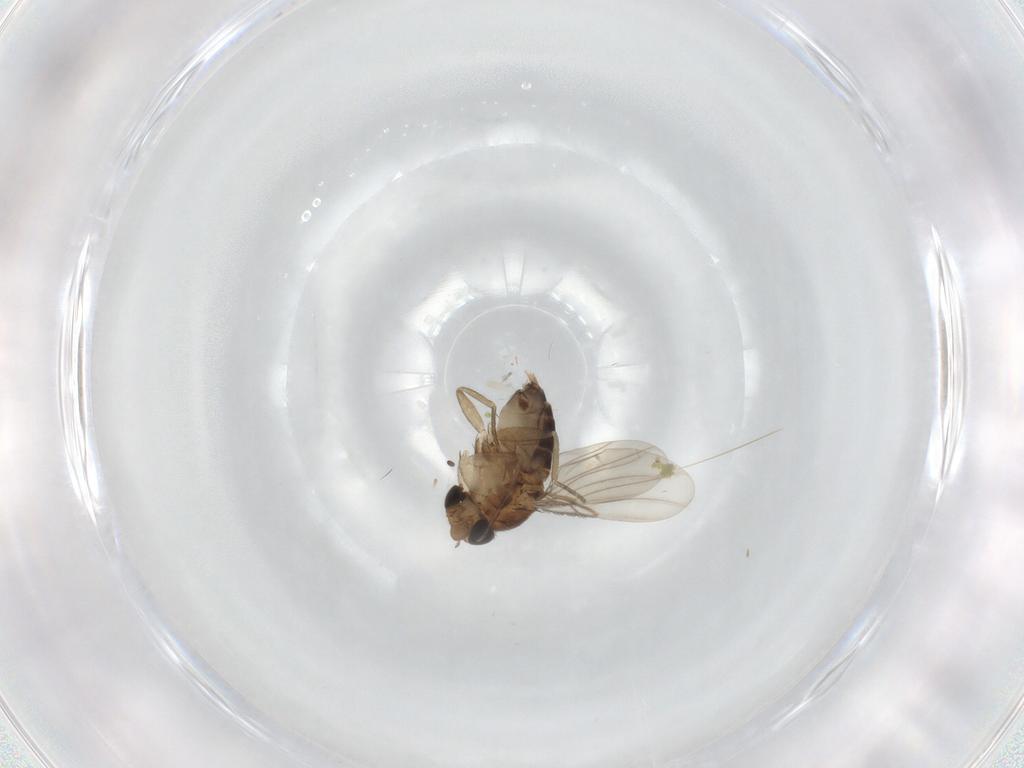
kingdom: Animalia
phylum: Arthropoda
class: Insecta
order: Diptera
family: Phoridae
